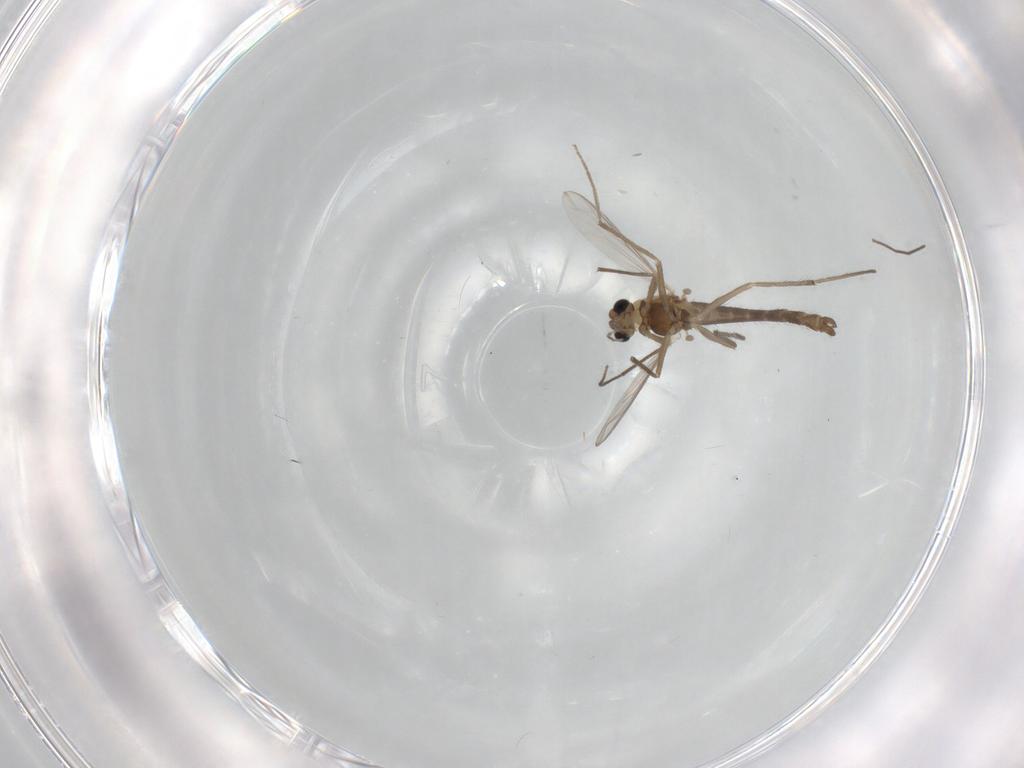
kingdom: Animalia
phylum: Arthropoda
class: Insecta
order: Diptera
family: Chironomidae
